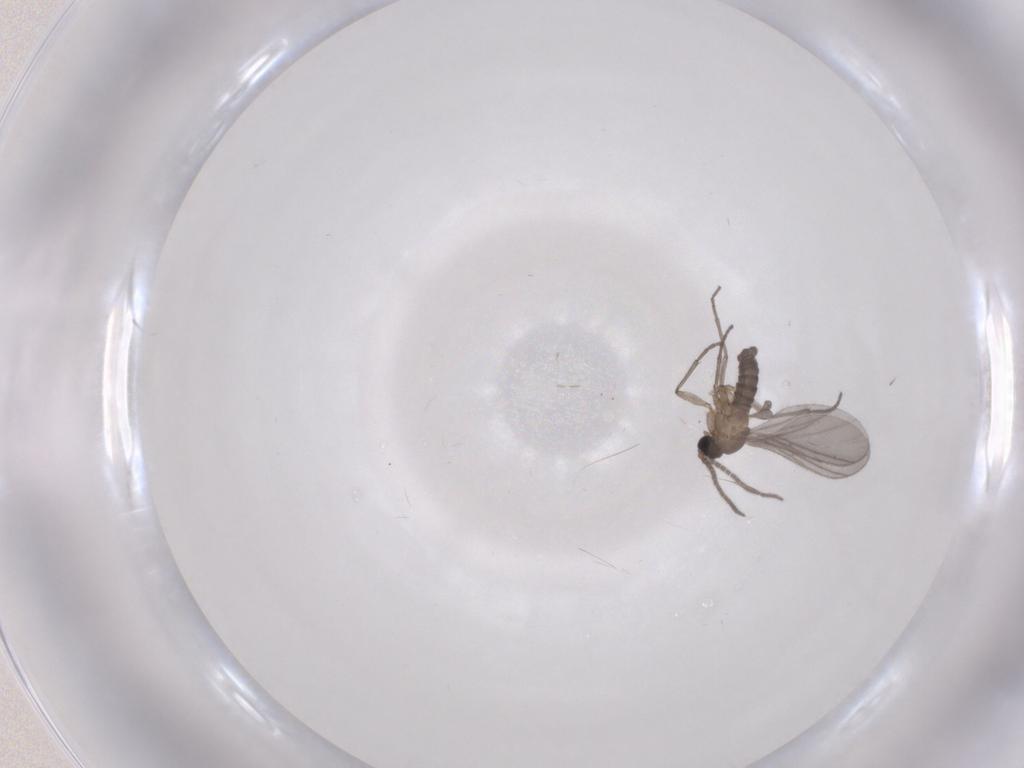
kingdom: Animalia
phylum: Arthropoda
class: Insecta
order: Diptera
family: Sciaridae
